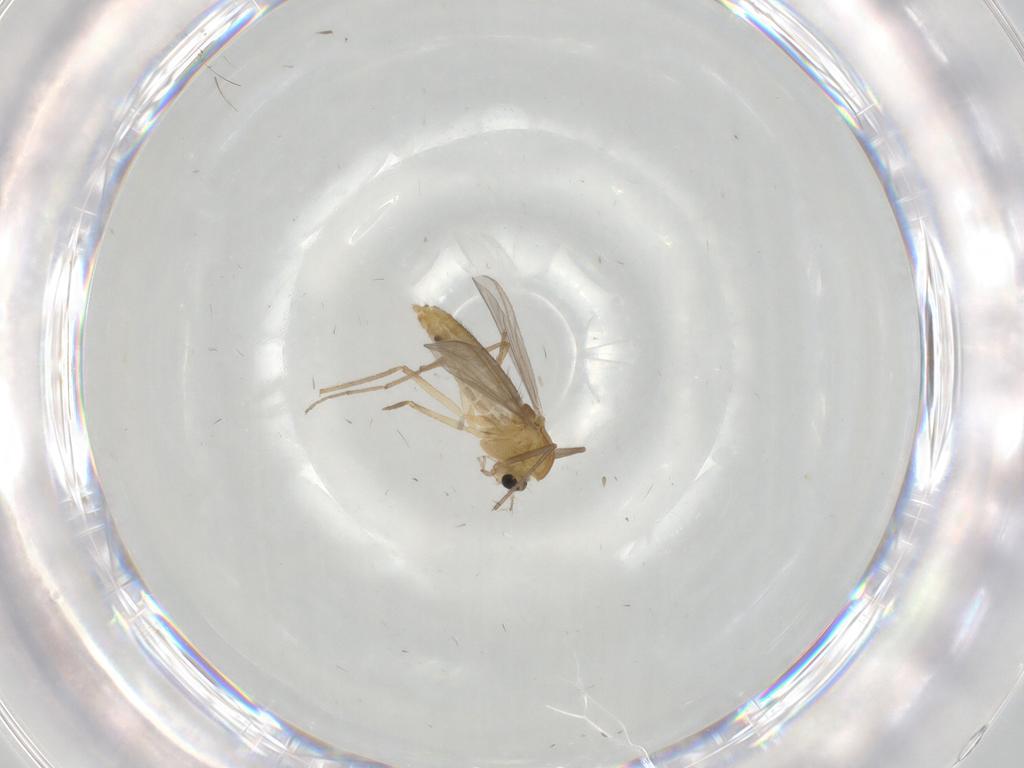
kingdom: Animalia
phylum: Arthropoda
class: Insecta
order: Diptera
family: Chironomidae
